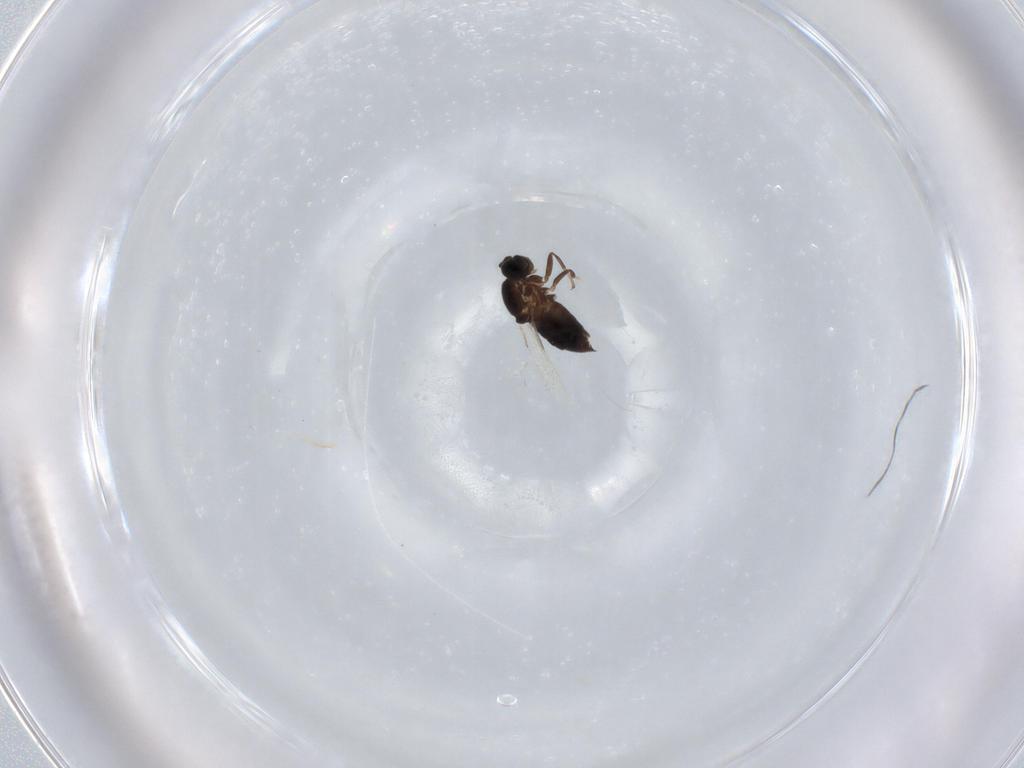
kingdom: Animalia
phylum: Arthropoda
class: Insecta
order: Diptera
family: Scatopsidae
